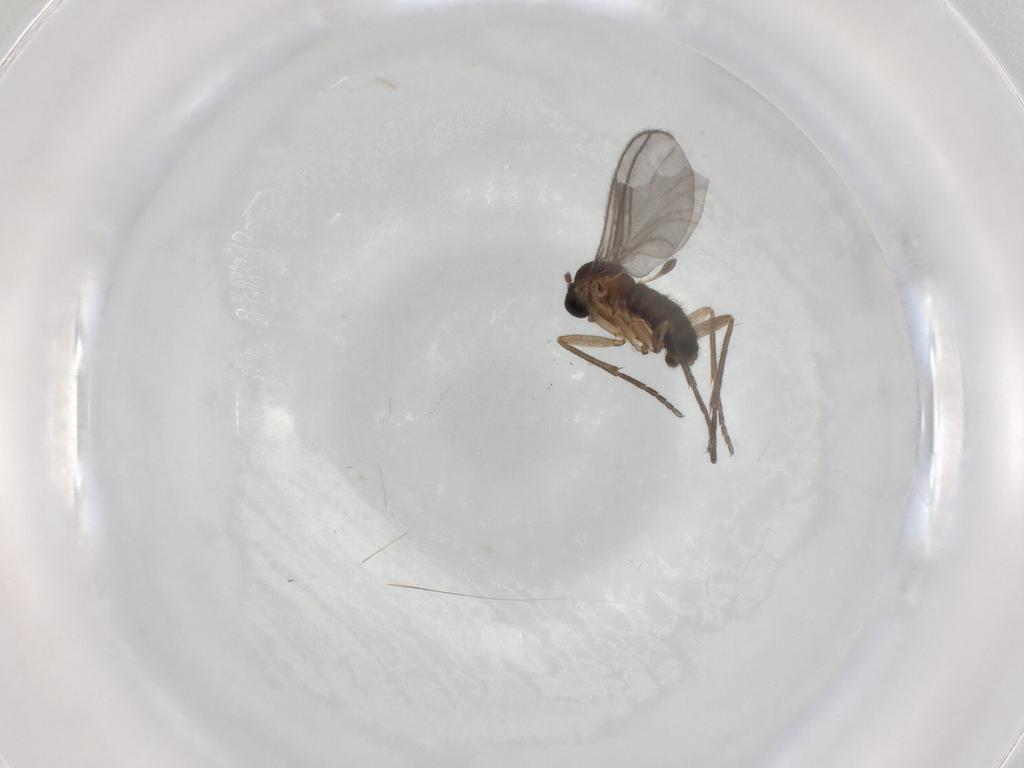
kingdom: Animalia
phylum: Arthropoda
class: Insecta
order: Diptera
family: Sciaridae
